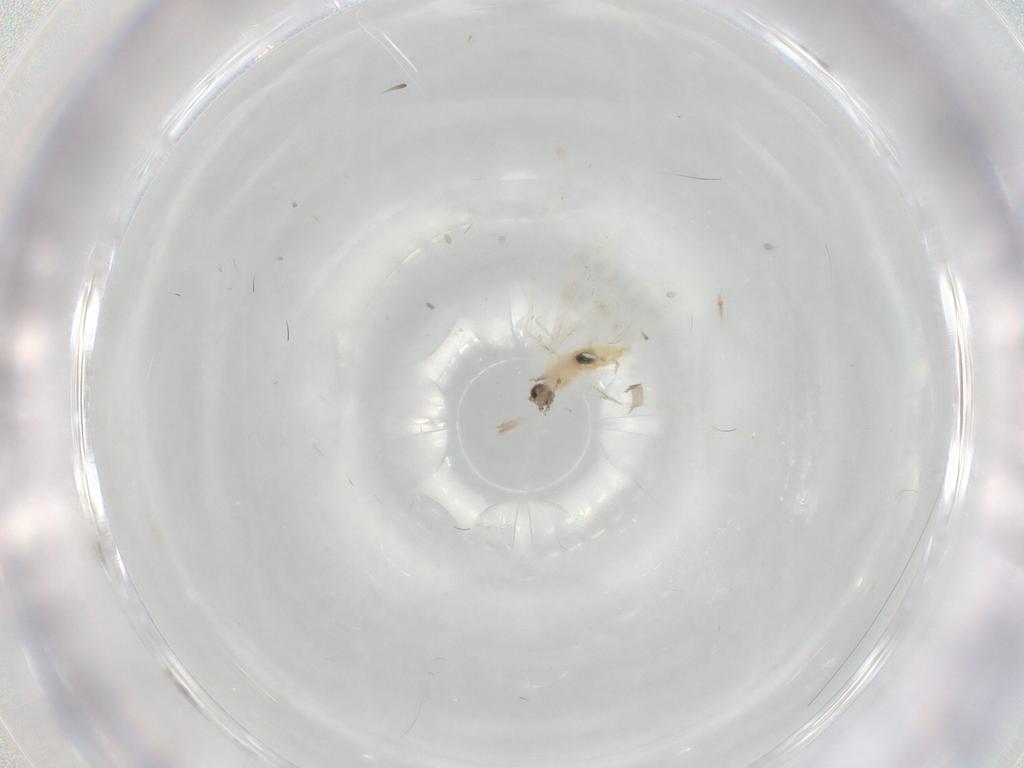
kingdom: Animalia
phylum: Arthropoda
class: Insecta
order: Diptera
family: Cecidomyiidae
